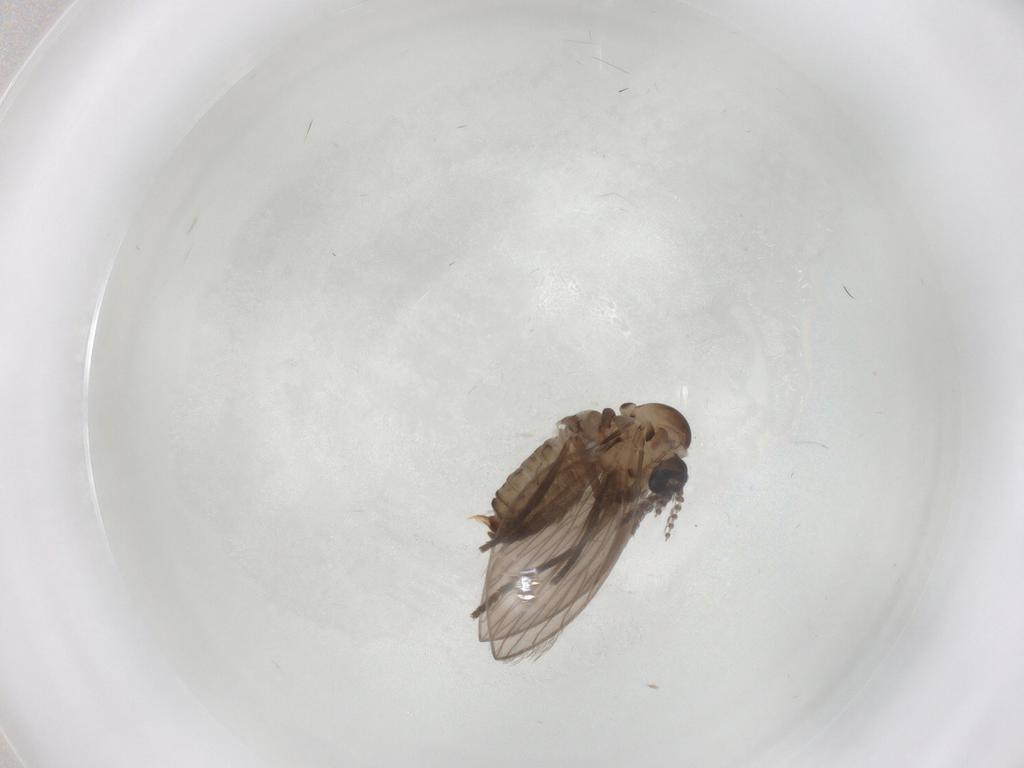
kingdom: Animalia
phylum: Arthropoda
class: Insecta
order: Diptera
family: Psychodidae
